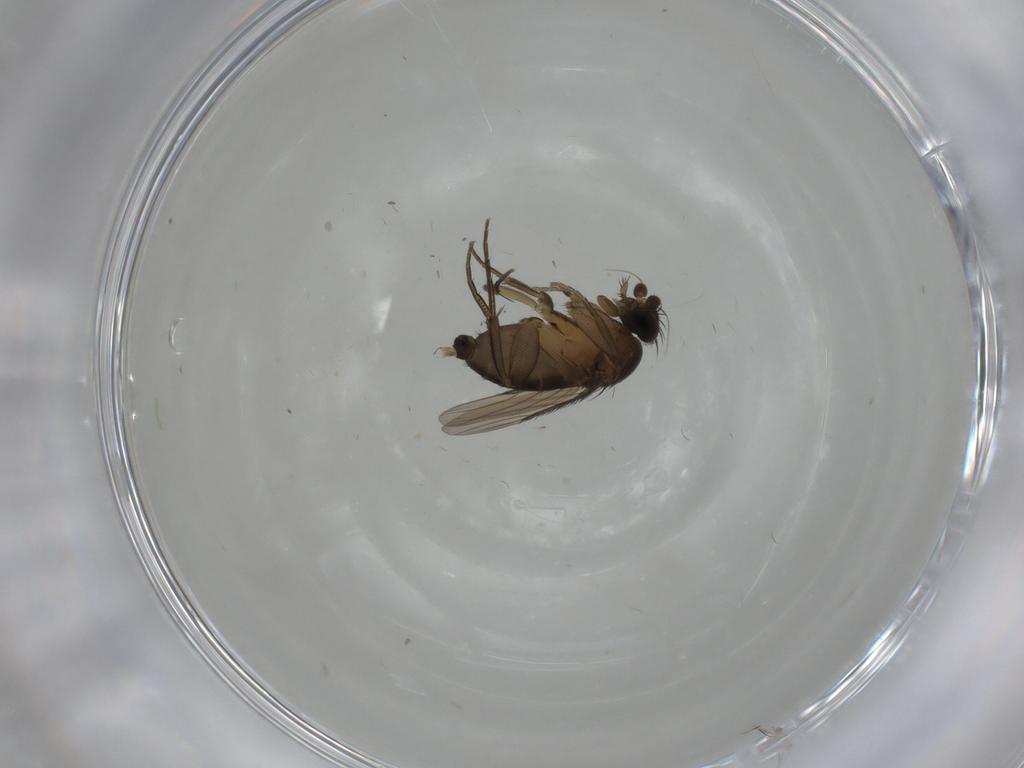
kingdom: Animalia
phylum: Arthropoda
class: Insecta
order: Diptera
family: Phoridae
